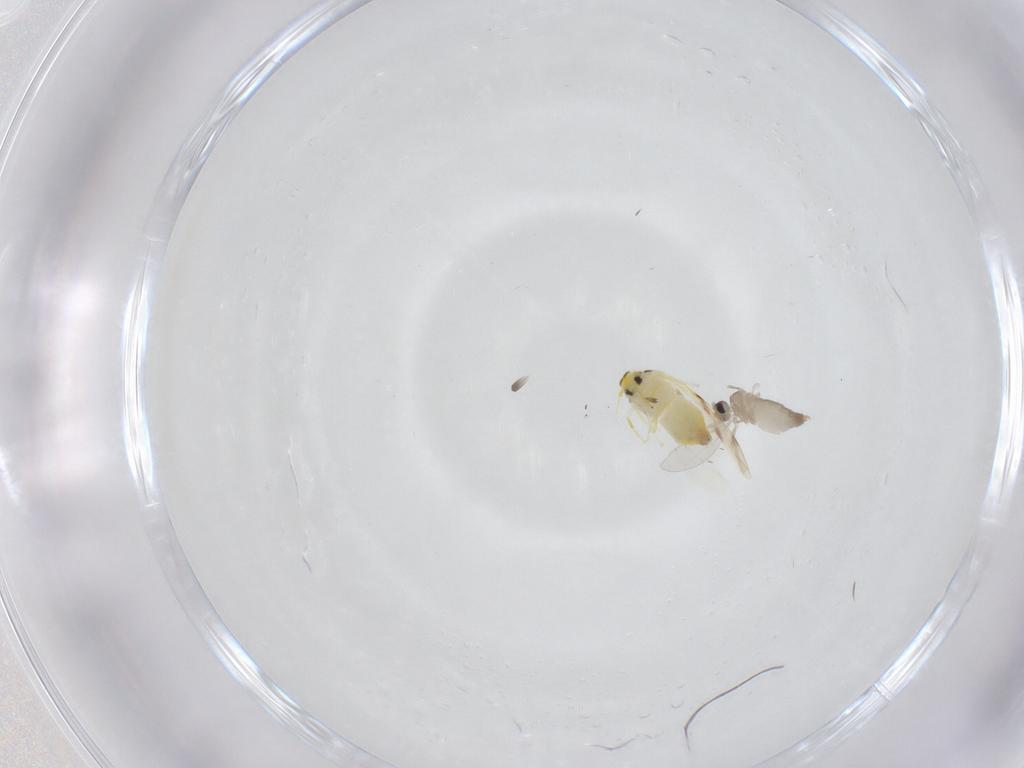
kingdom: Animalia
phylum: Arthropoda
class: Insecta
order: Diptera
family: Cecidomyiidae
